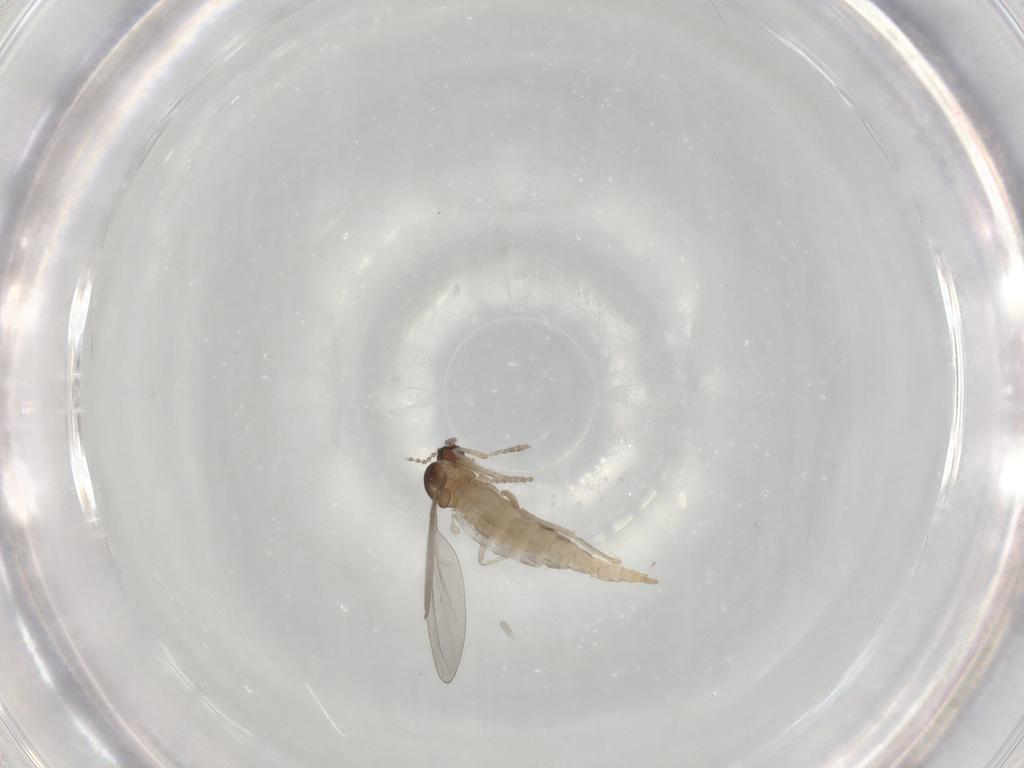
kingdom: Animalia
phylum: Arthropoda
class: Insecta
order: Diptera
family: Cecidomyiidae
